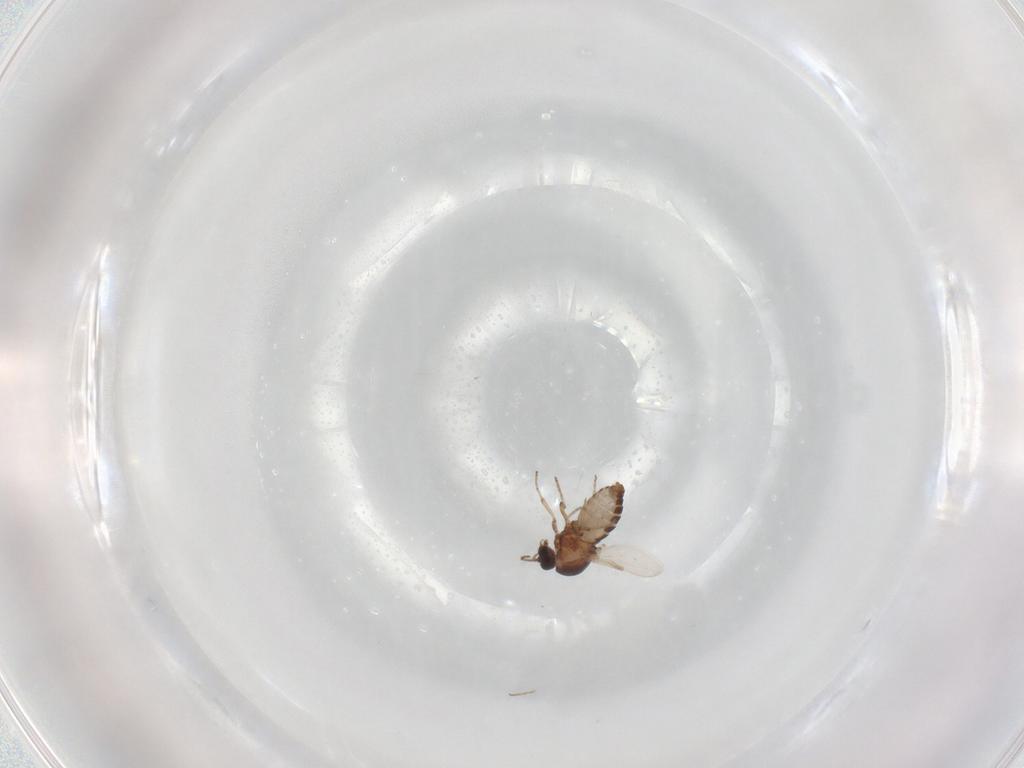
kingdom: Animalia
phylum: Arthropoda
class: Insecta
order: Diptera
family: Ceratopogonidae
